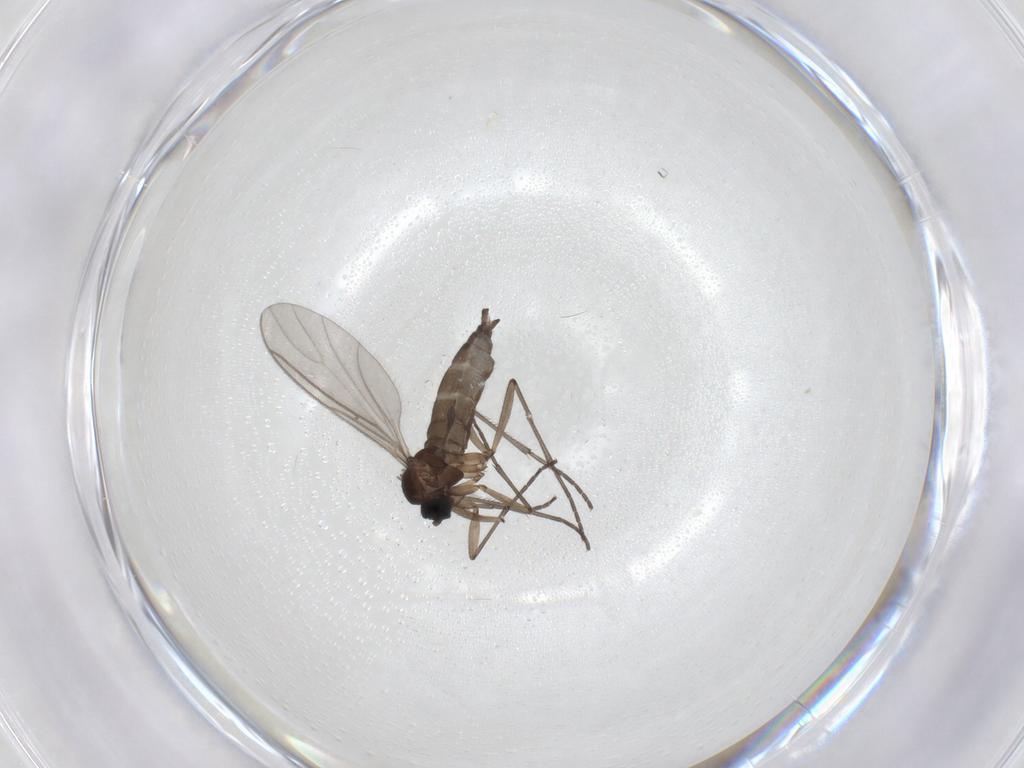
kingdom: Animalia
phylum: Arthropoda
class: Insecta
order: Diptera
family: Sciaridae
